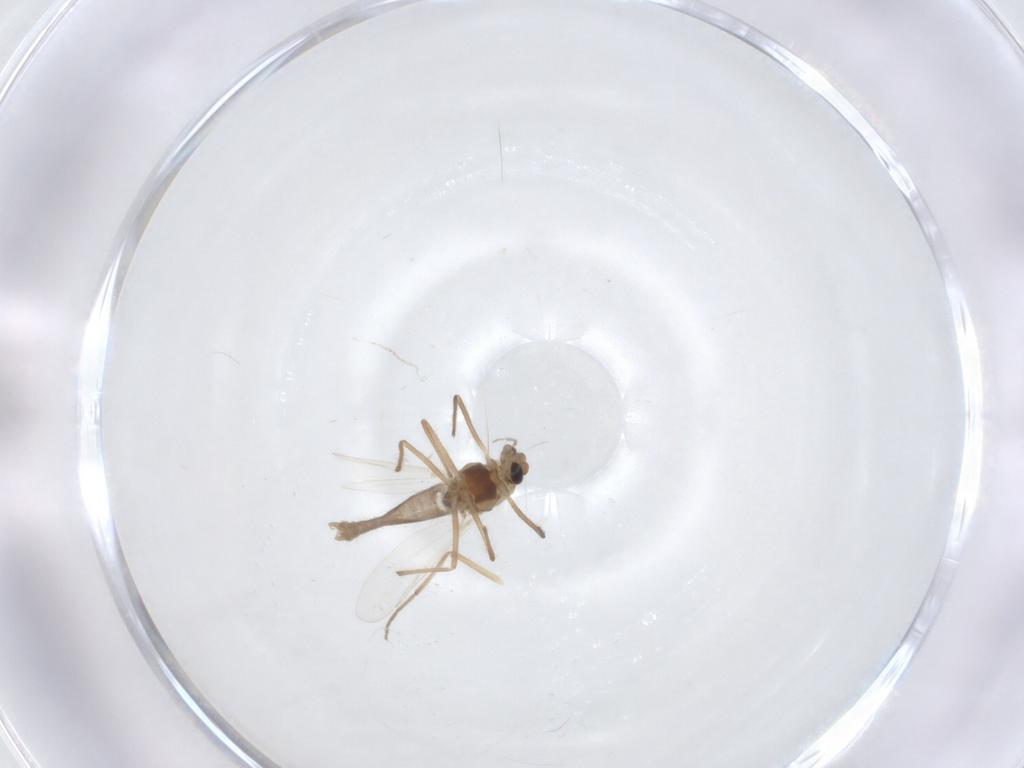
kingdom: Animalia
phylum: Arthropoda
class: Insecta
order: Diptera
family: Chironomidae
